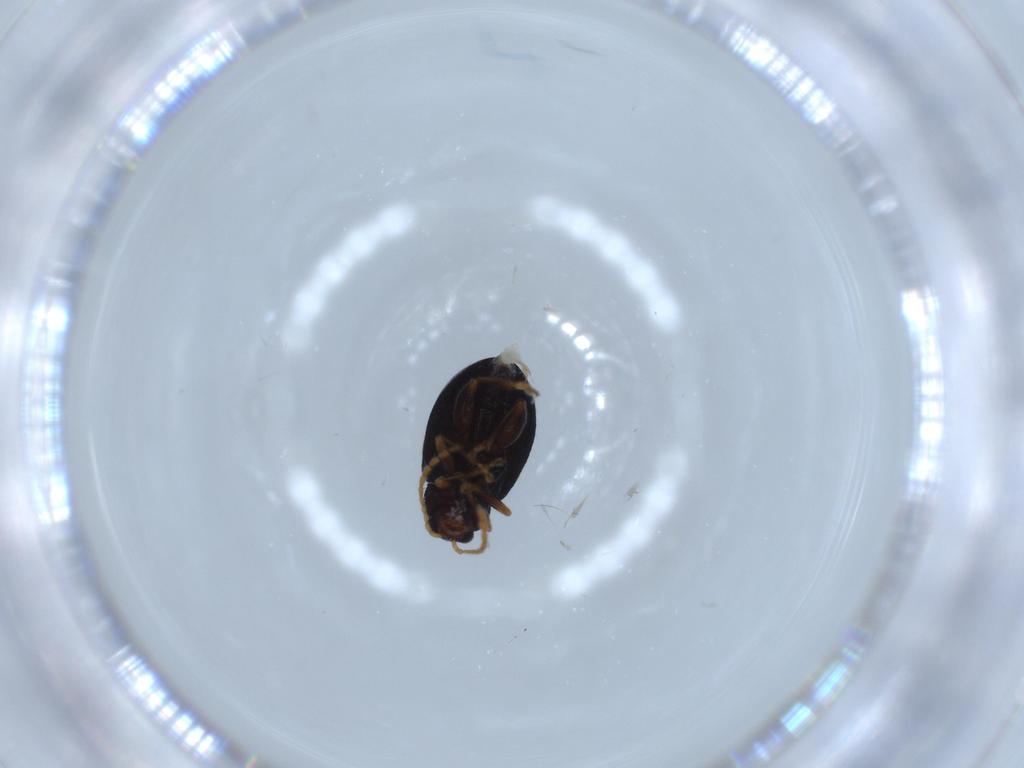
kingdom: Animalia
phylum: Arthropoda
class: Insecta
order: Coleoptera
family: Chrysomelidae
